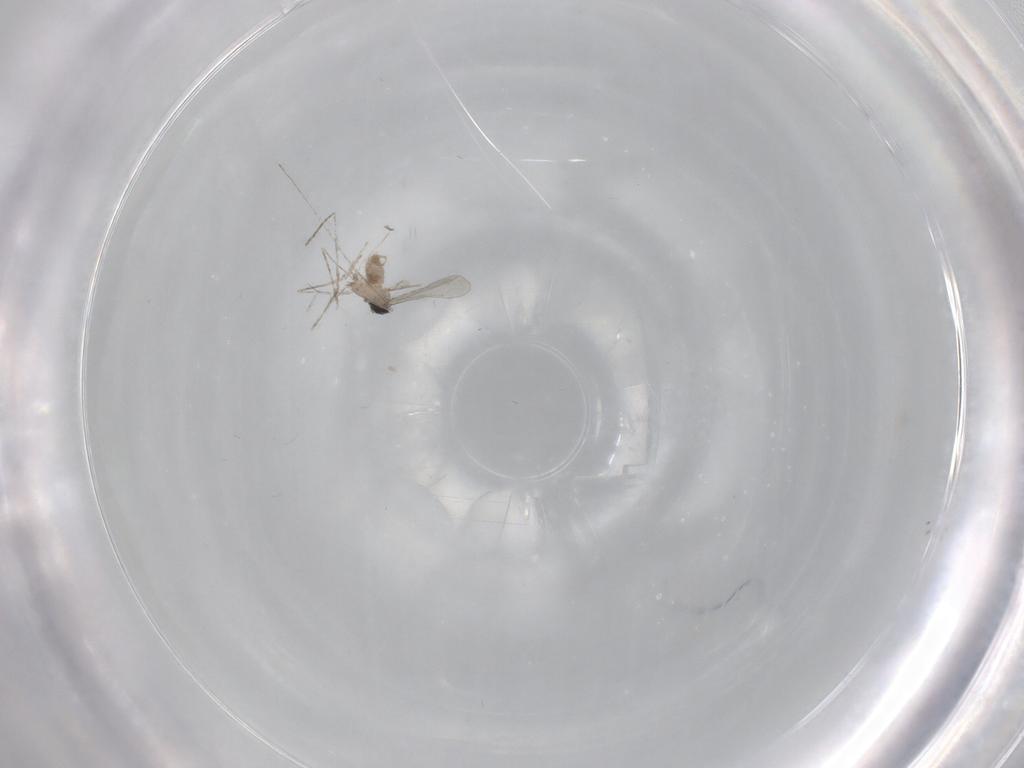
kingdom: Animalia
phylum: Arthropoda
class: Insecta
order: Diptera
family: Cecidomyiidae
